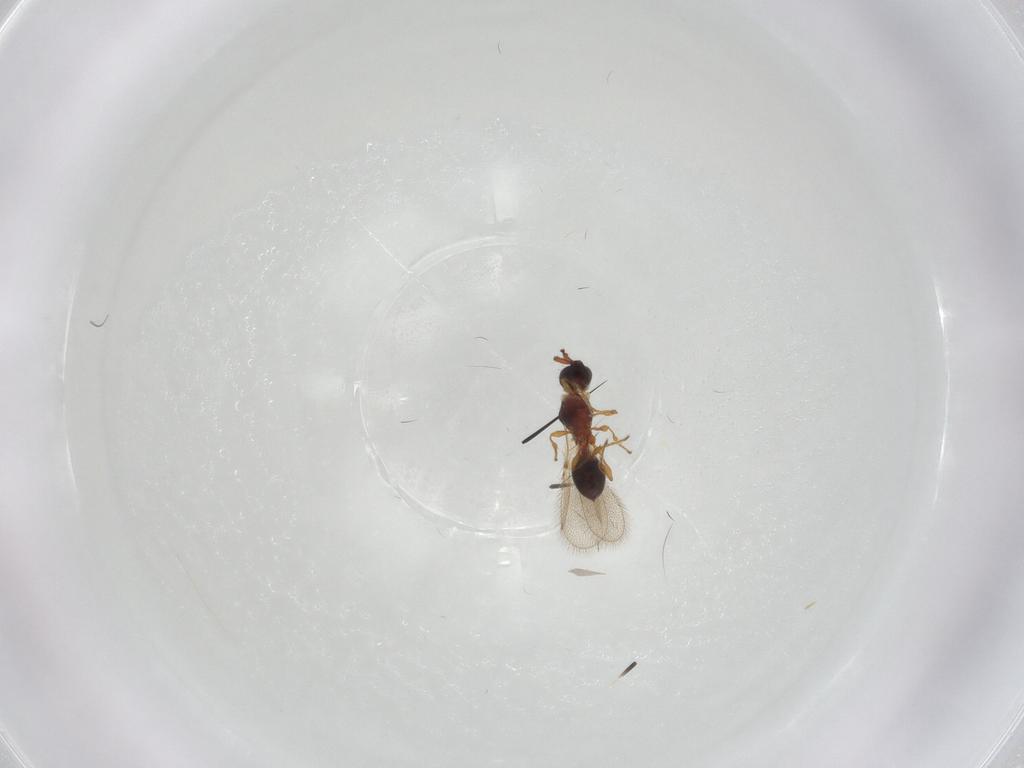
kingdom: Animalia
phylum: Arthropoda
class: Insecta
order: Hymenoptera
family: Diapriidae
